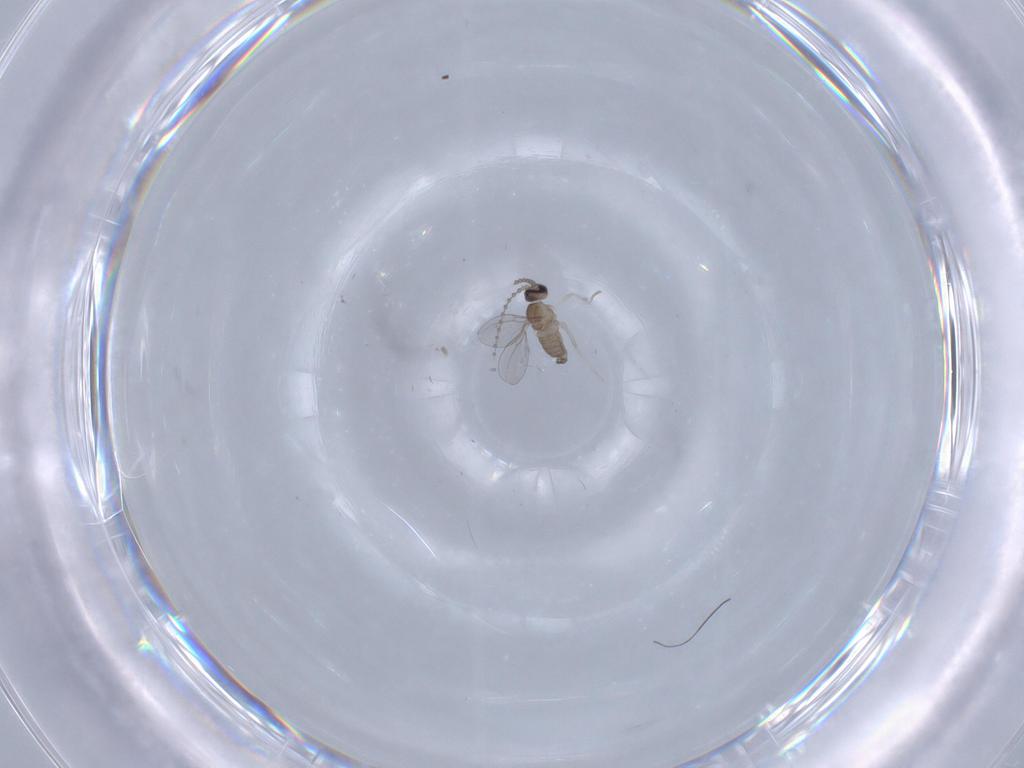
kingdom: Animalia
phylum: Arthropoda
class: Insecta
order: Diptera
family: Cecidomyiidae
